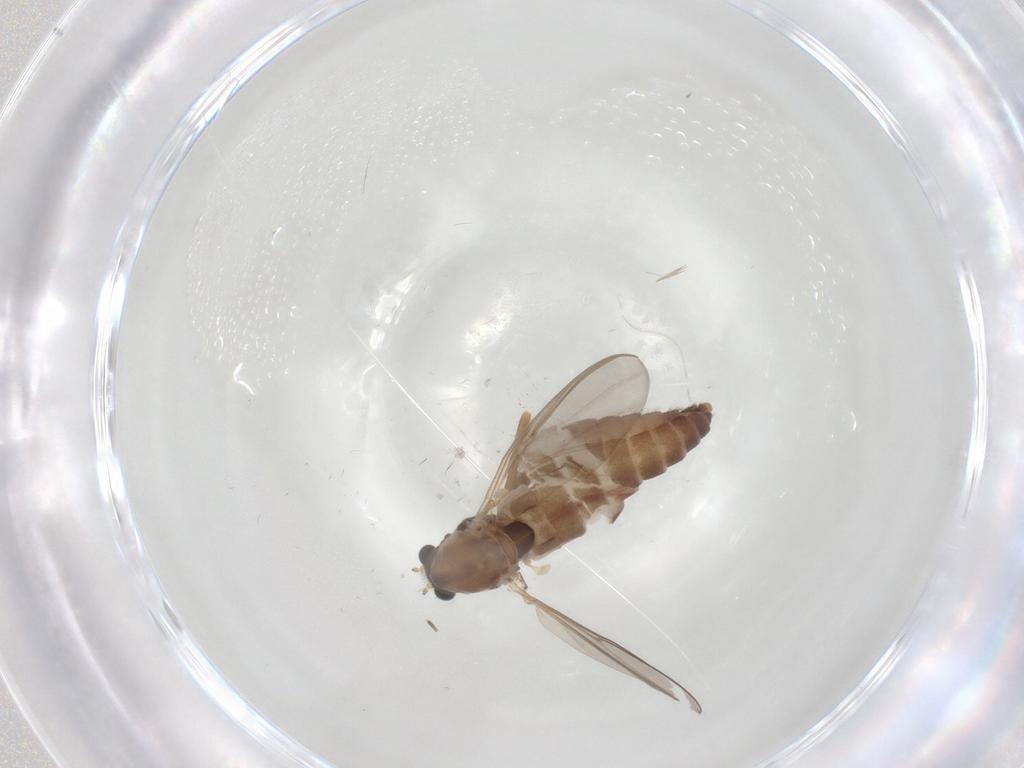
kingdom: Animalia
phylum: Arthropoda
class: Insecta
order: Diptera
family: Chironomidae
